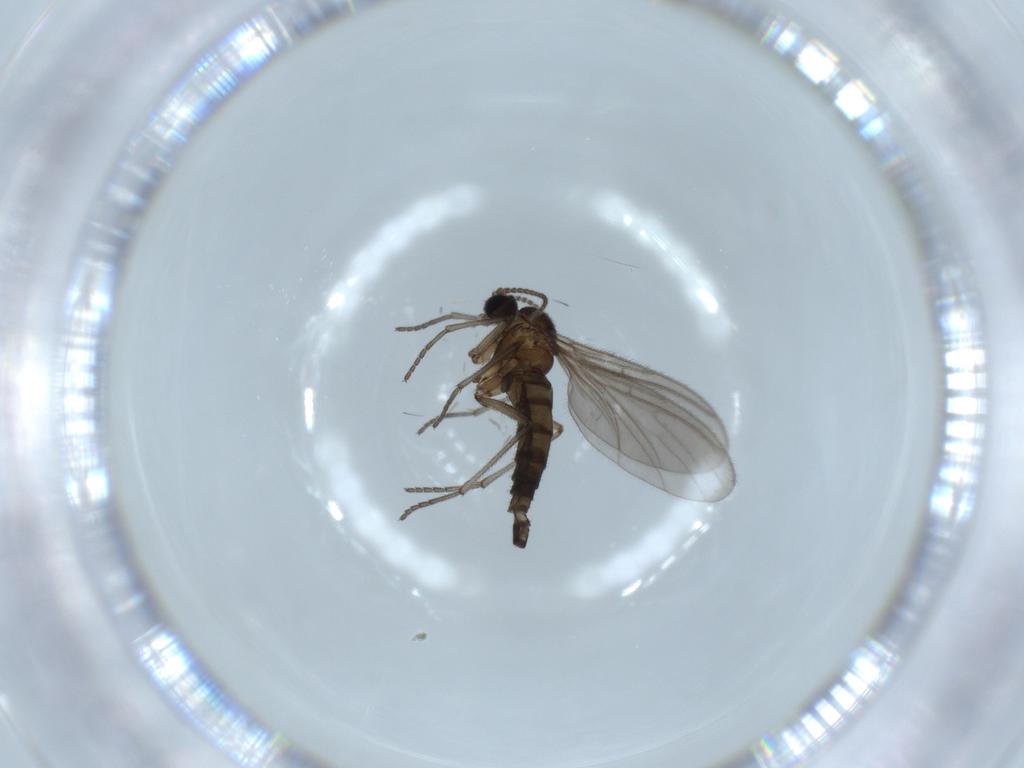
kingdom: Animalia
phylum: Arthropoda
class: Insecta
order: Diptera
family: Sciaridae
